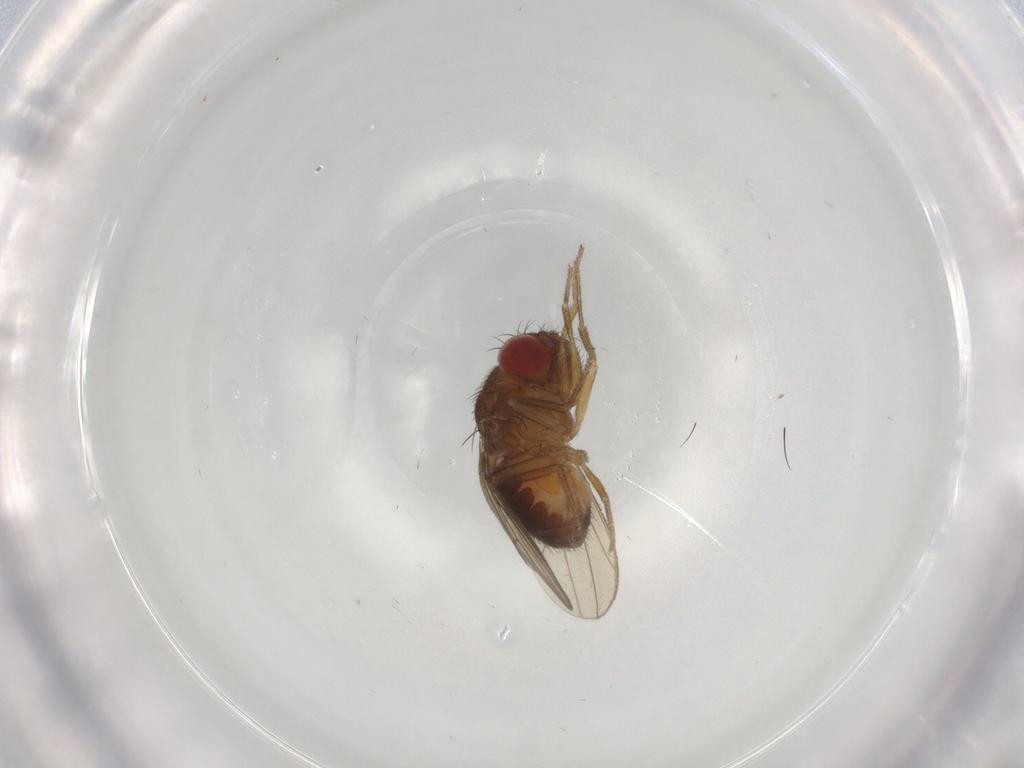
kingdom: Animalia
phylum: Arthropoda
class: Insecta
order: Diptera
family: Drosophilidae
